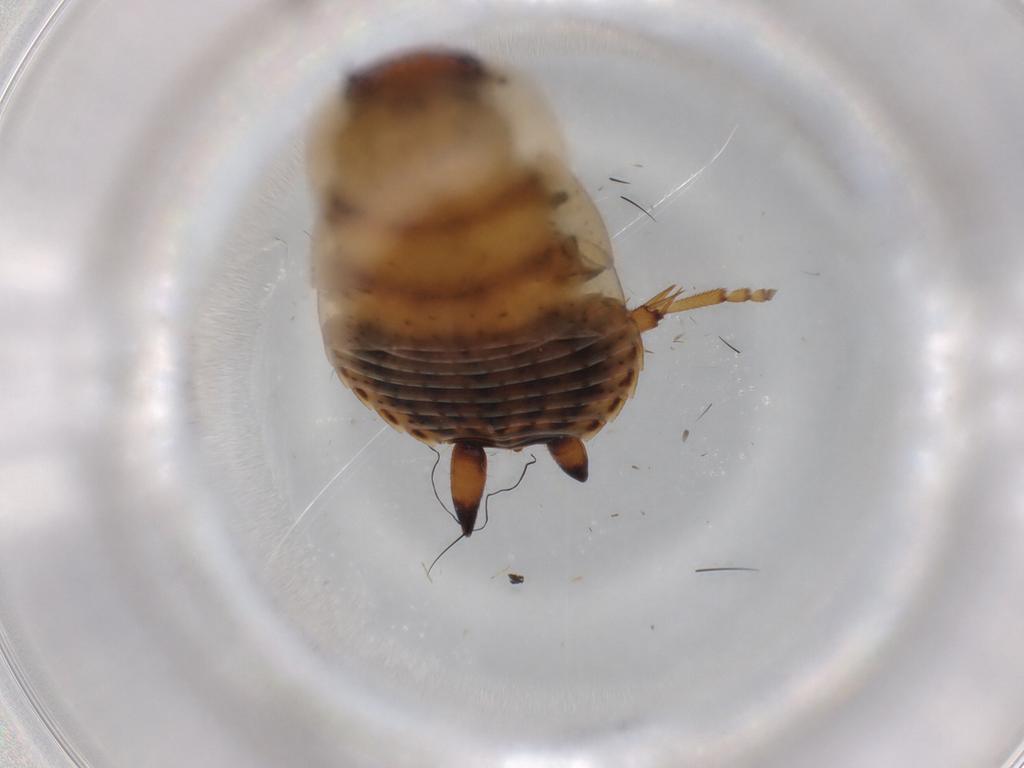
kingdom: Animalia
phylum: Arthropoda
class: Insecta
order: Blattodea
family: Ectobiidae
